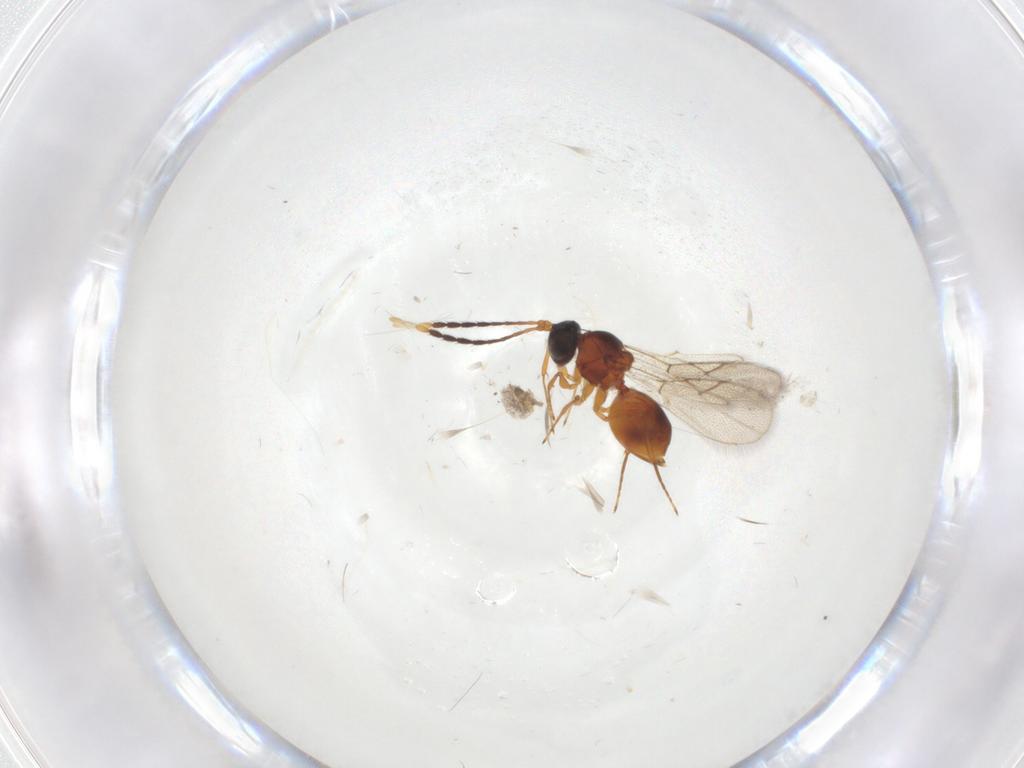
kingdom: Animalia
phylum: Arthropoda
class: Insecta
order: Hymenoptera
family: Figitidae
